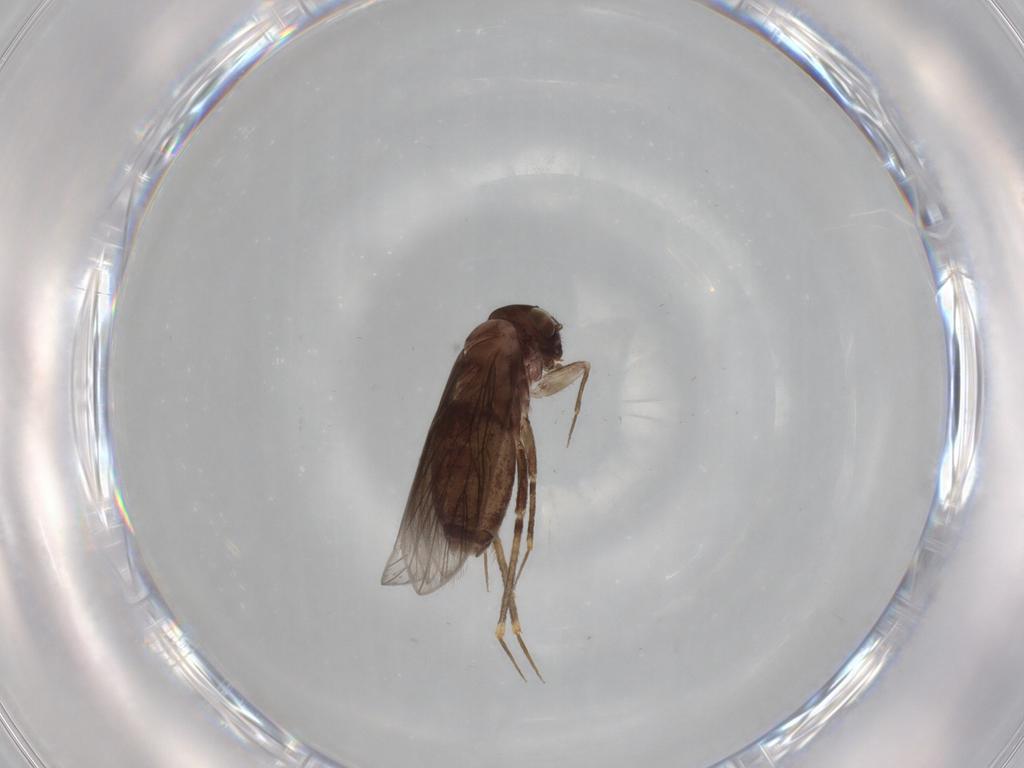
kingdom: Animalia
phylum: Arthropoda
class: Insecta
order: Psocodea
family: Lepidopsocidae
